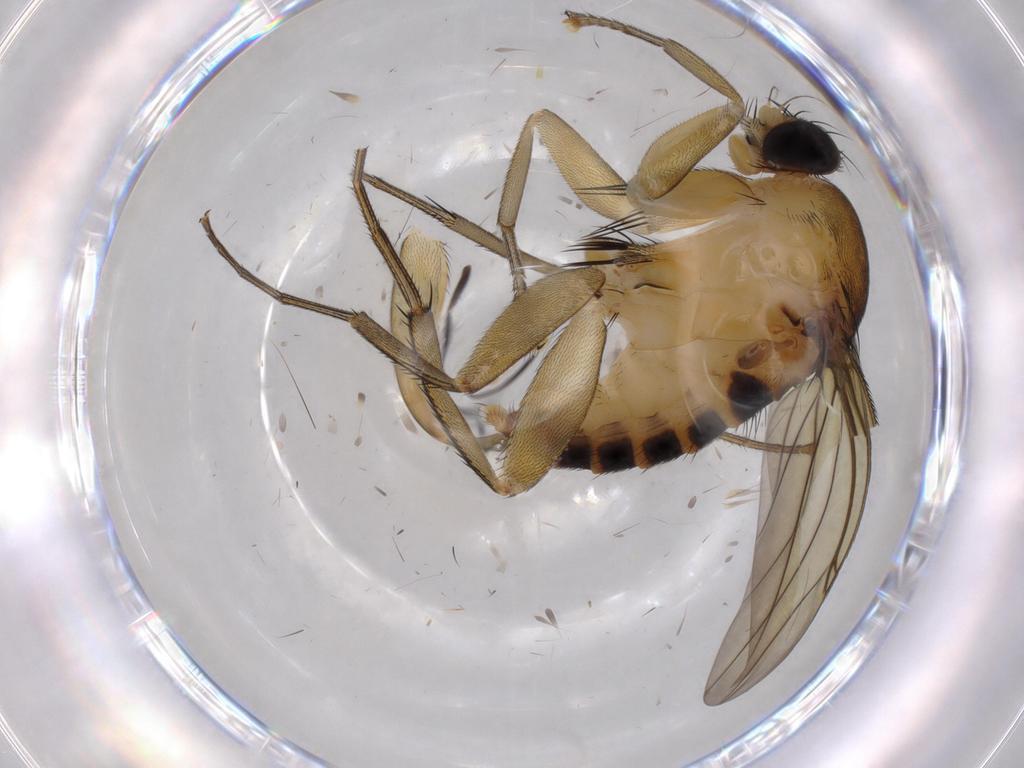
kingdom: Animalia
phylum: Arthropoda
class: Insecta
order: Diptera
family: Phoridae
